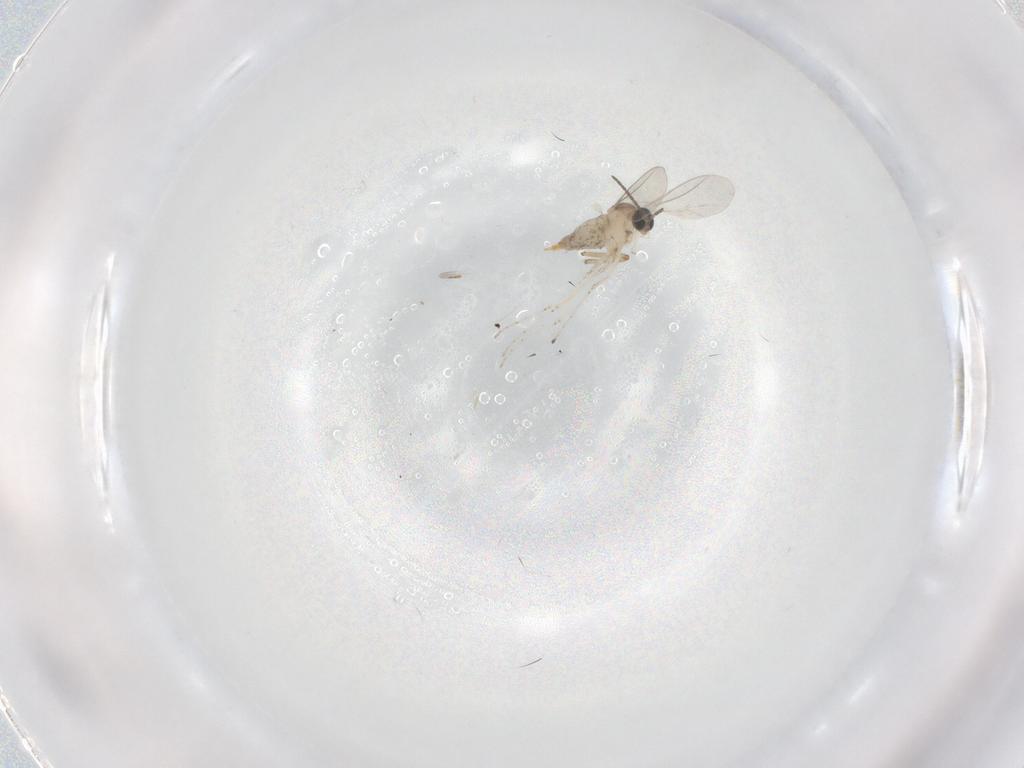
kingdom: Animalia
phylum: Arthropoda
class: Insecta
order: Diptera
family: Cecidomyiidae
